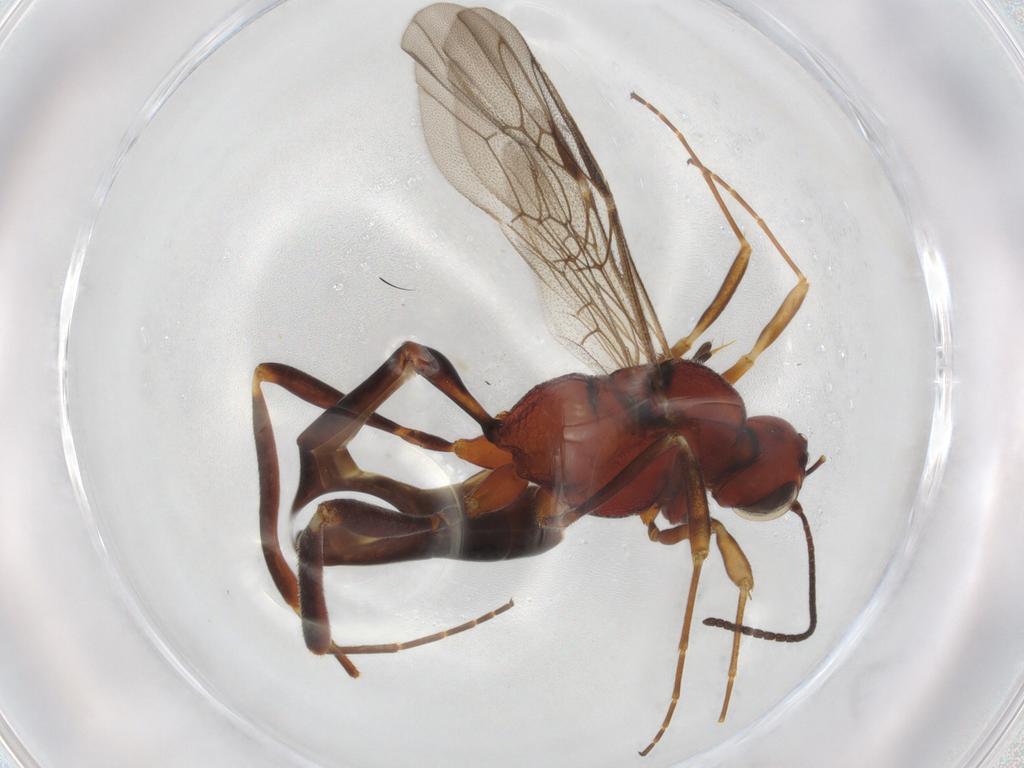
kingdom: Animalia
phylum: Arthropoda
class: Insecta
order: Hymenoptera
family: Ichneumonidae
